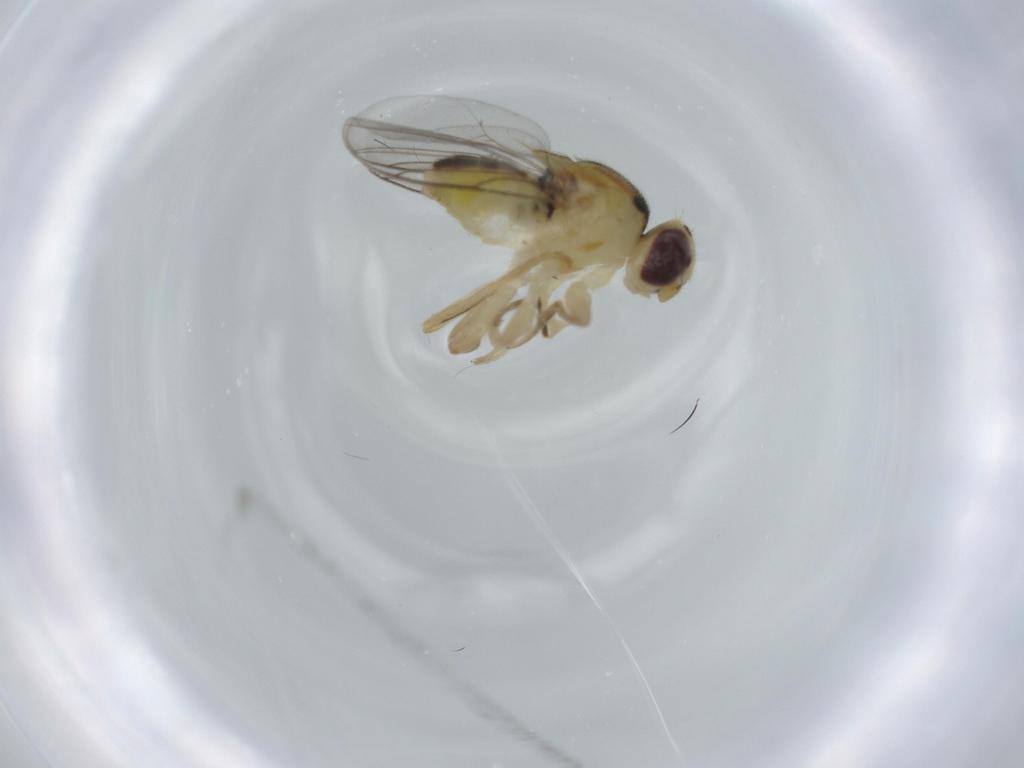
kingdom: Animalia
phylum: Arthropoda
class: Insecta
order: Diptera
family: Chloropidae
